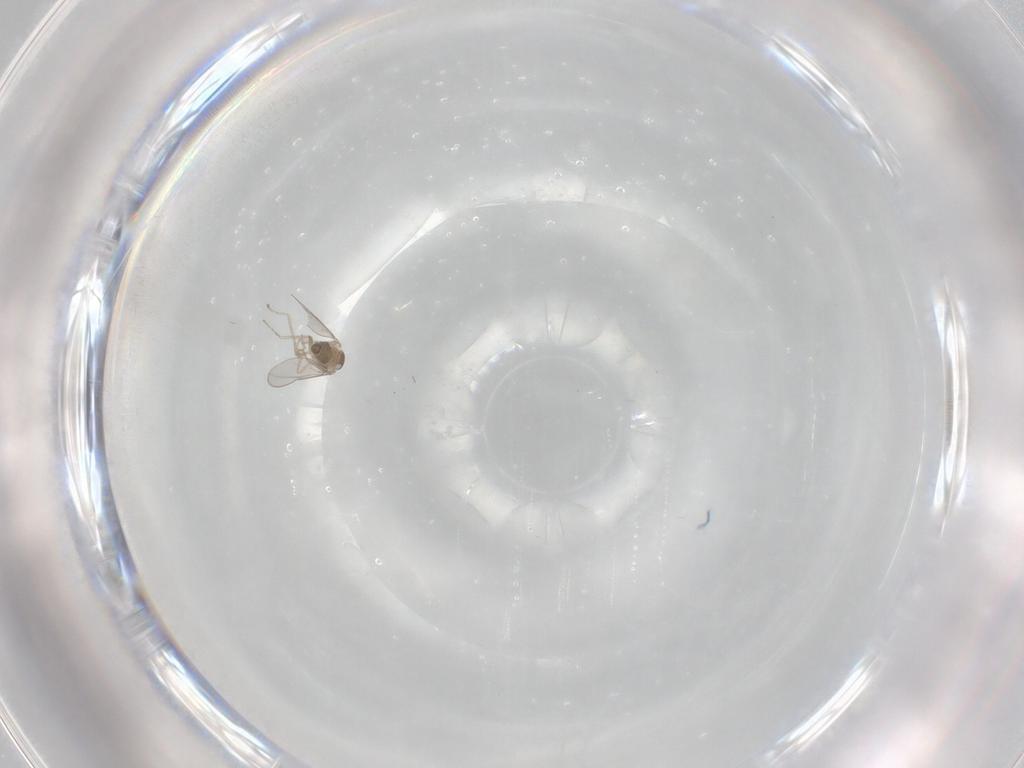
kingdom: Animalia
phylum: Arthropoda
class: Insecta
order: Diptera
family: Cecidomyiidae
